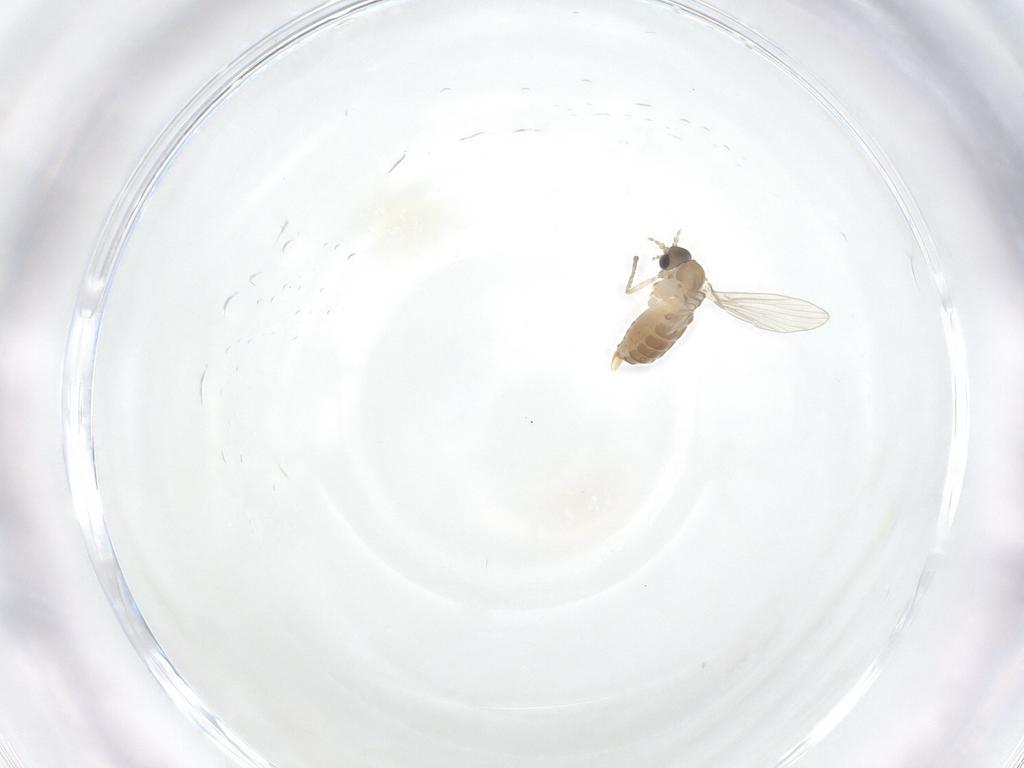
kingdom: Animalia
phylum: Arthropoda
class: Insecta
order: Diptera
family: Psychodidae
